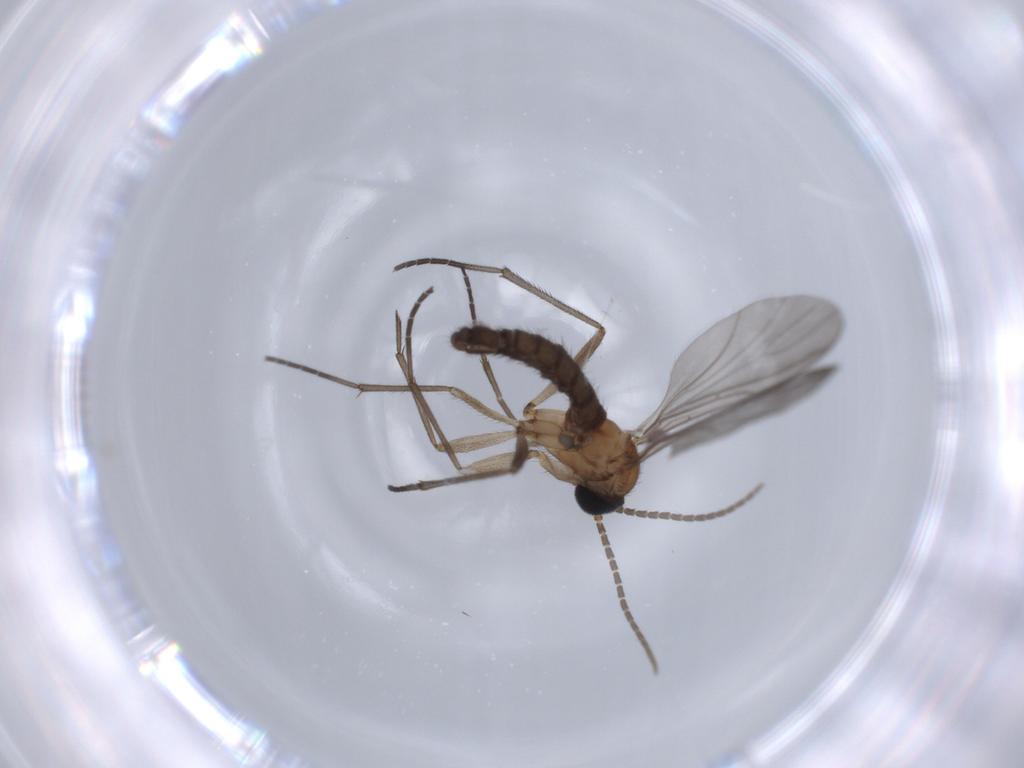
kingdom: Animalia
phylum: Arthropoda
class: Insecta
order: Diptera
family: Sciaridae
